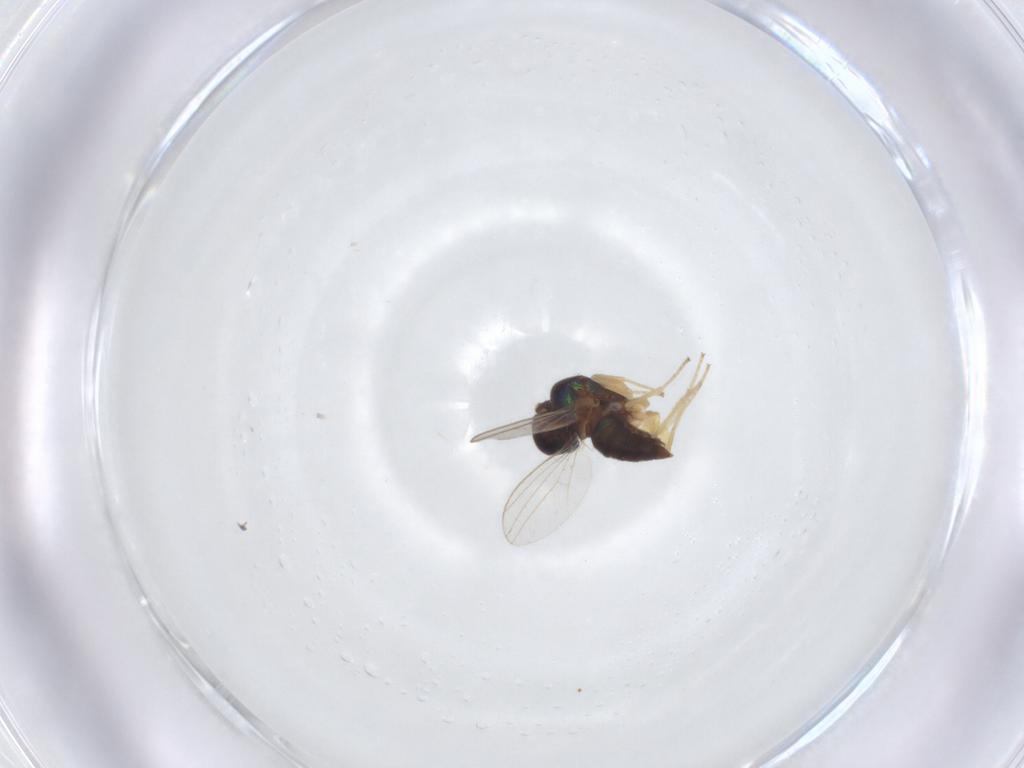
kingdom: Animalia
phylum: Arthropoda
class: Insecta
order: Diptera
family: Dolichopodidae
